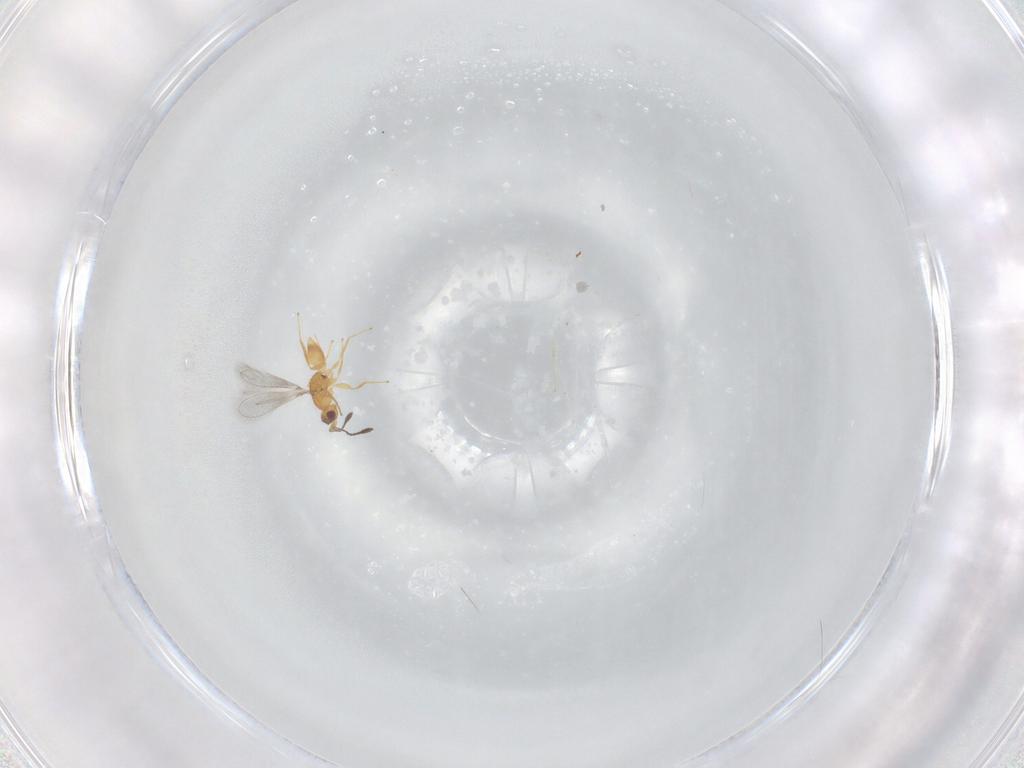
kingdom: Animalia
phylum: Arthropoda
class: Insecta
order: Hymenoptera
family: Mymaridae
